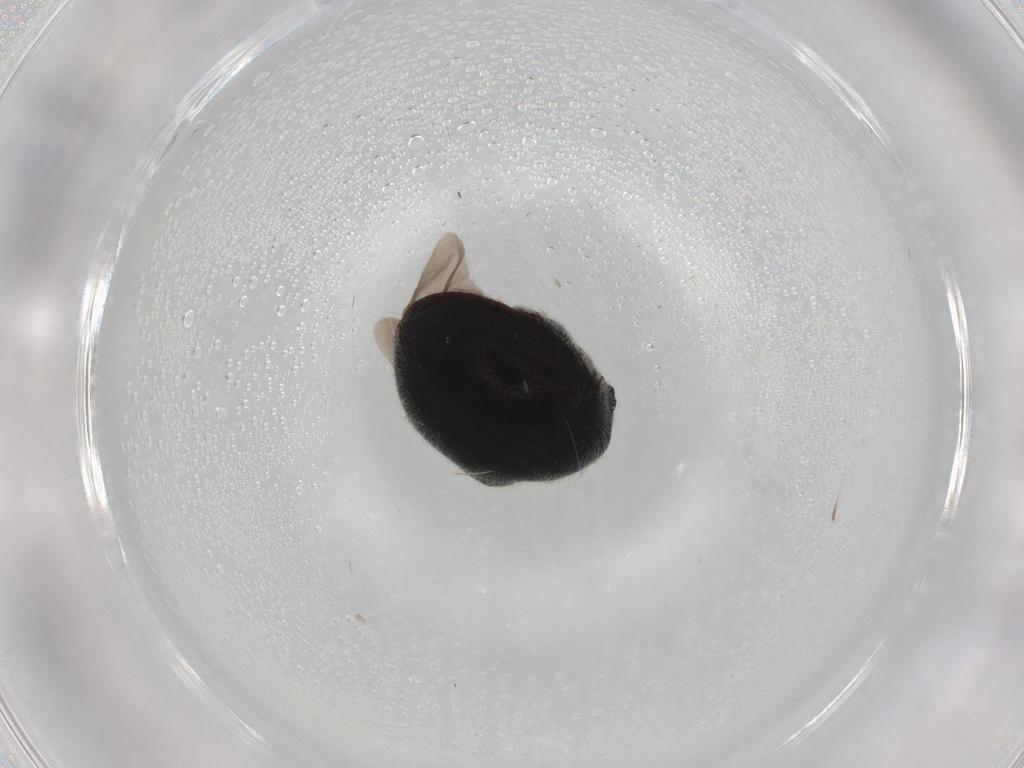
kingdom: Animalia
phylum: Arthropoda
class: Insecta
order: Coleoptera
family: Ptinidae
